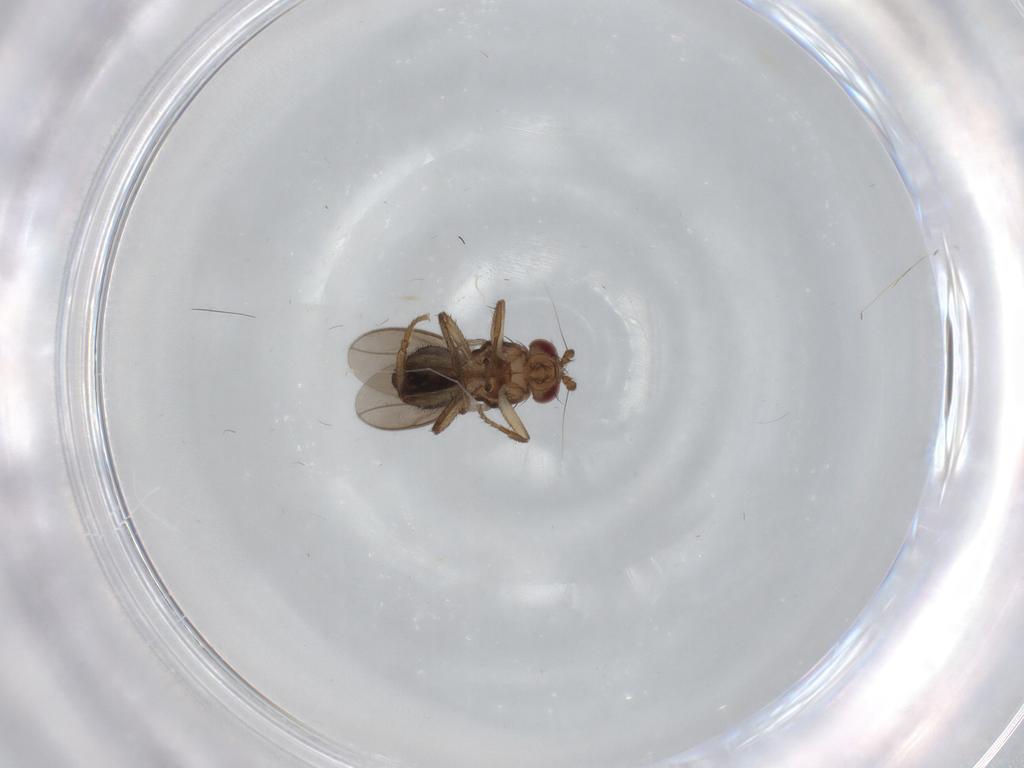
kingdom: Animalia
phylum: Arthropoda
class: Insecta
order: Diptera
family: Sphaeroceridae
